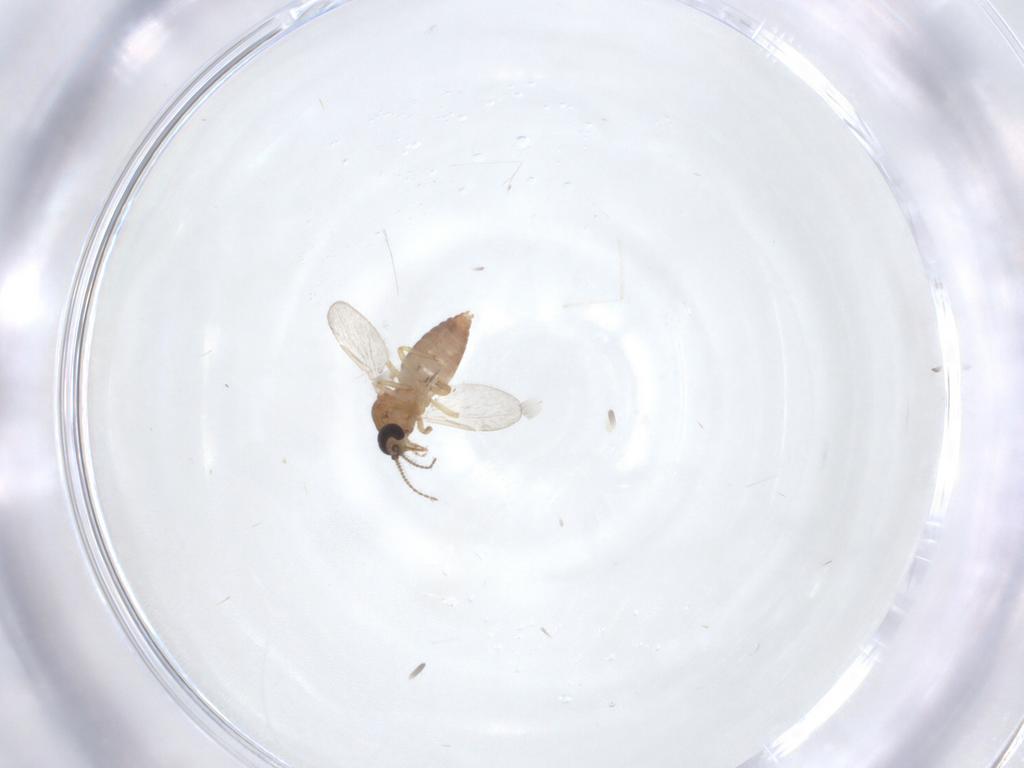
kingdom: Animalia
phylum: Arthropoda
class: Insecta
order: Diptera
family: Ceratopogonidae
